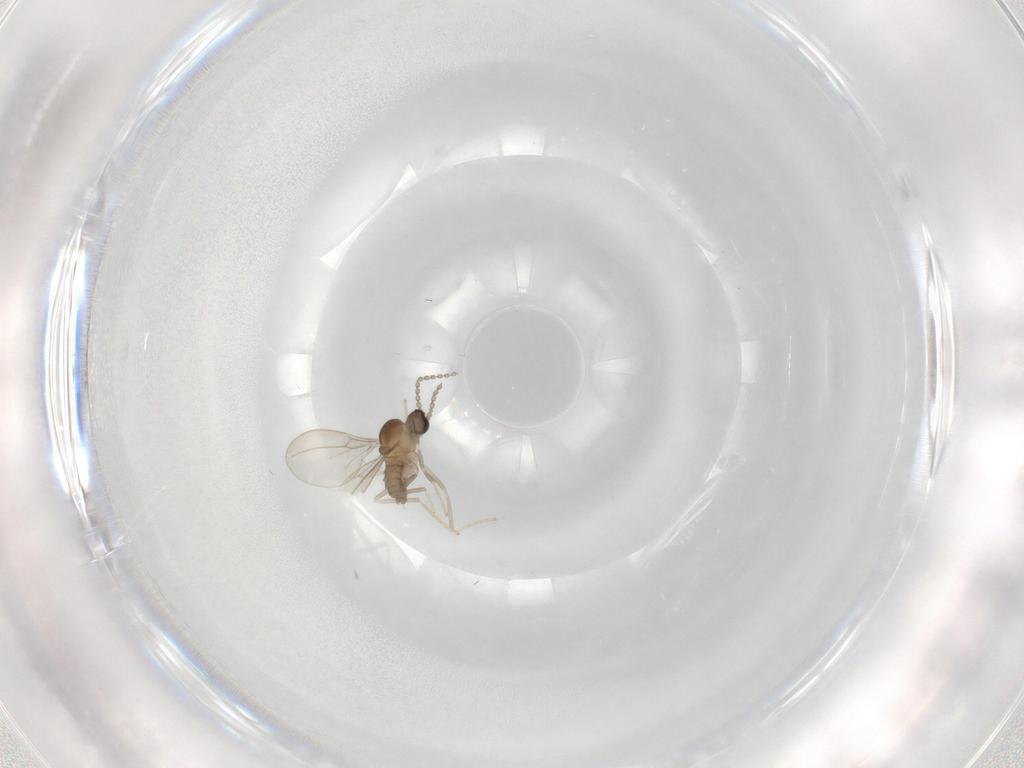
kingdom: Animalia
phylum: Arthropoda
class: Insecta
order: Diptera
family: Cecidomyiidae
